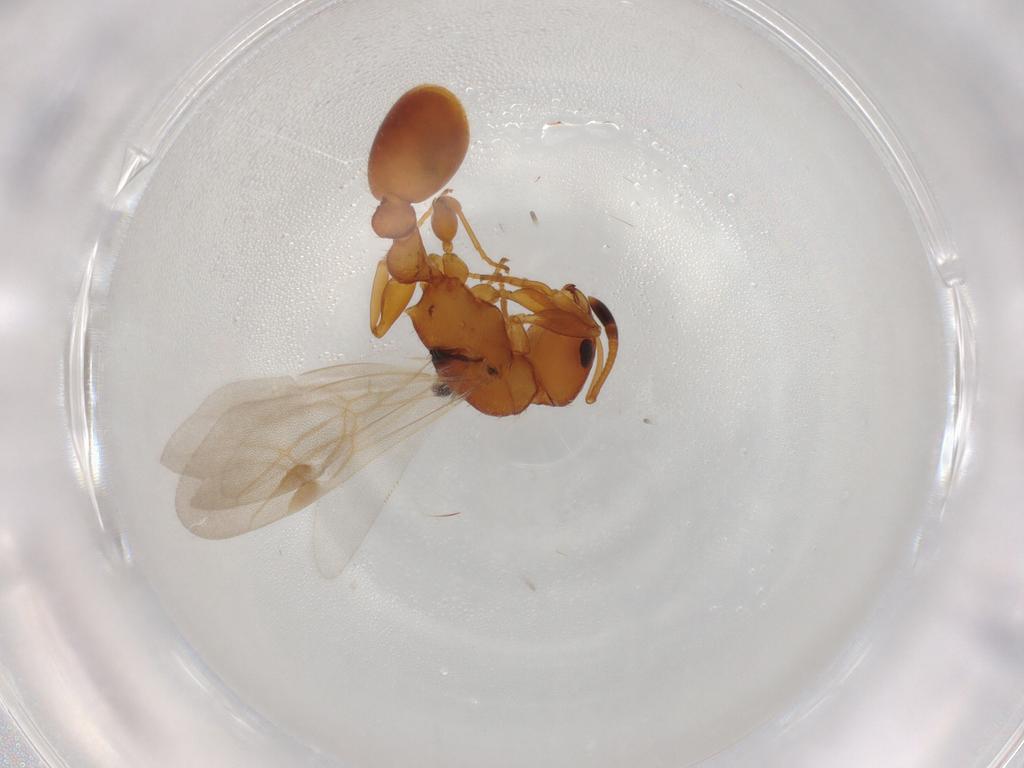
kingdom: Animalia
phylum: Arthropoda
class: Insecta
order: Hymenoptera
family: Formicidae
